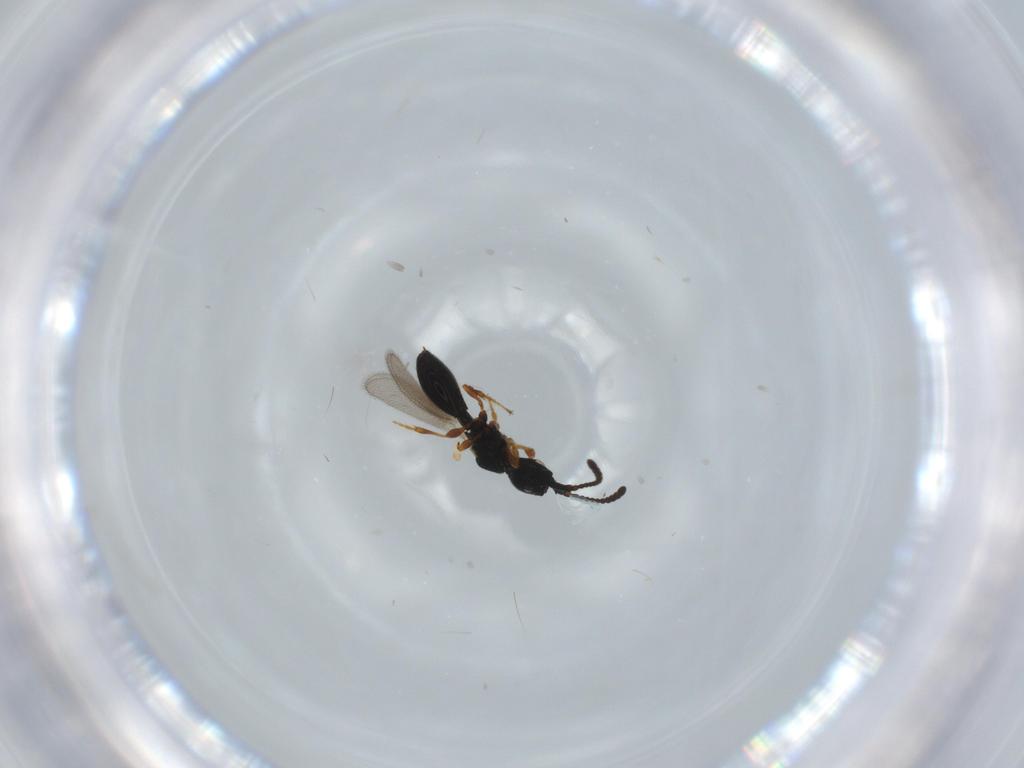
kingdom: Animalia
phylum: Arthropoda
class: Insecta
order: Hymenoptera
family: Diapriidae
